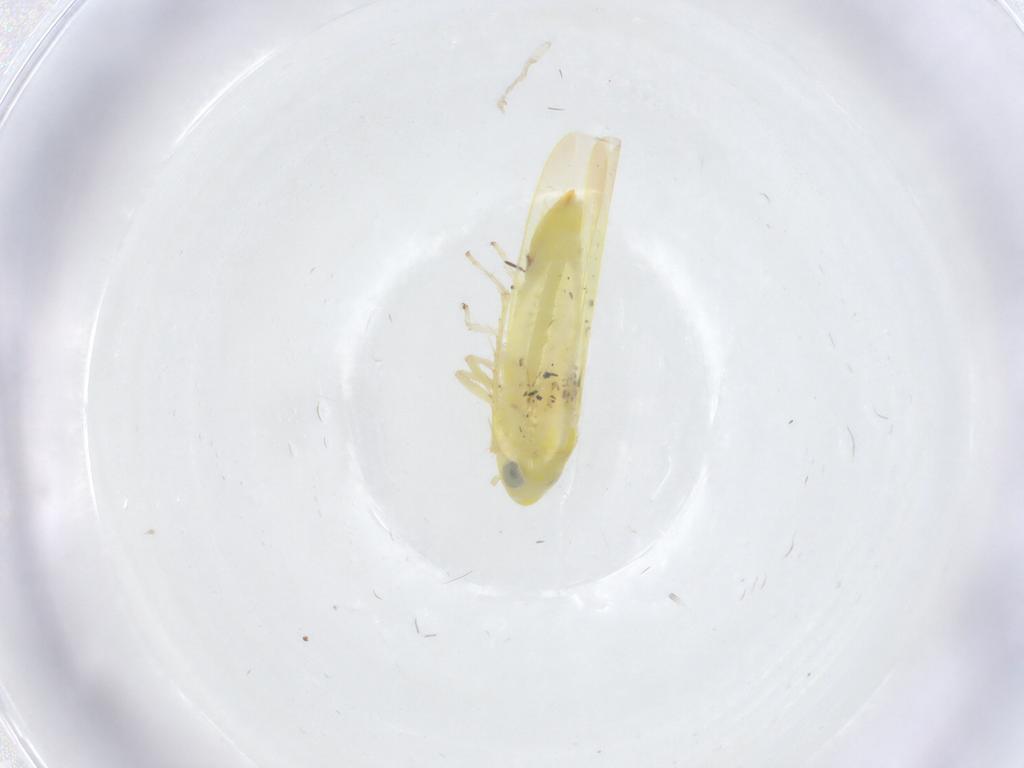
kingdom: Animalia
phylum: Arthropoda
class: Insecta
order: Hemiptera
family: Cicadellidae
